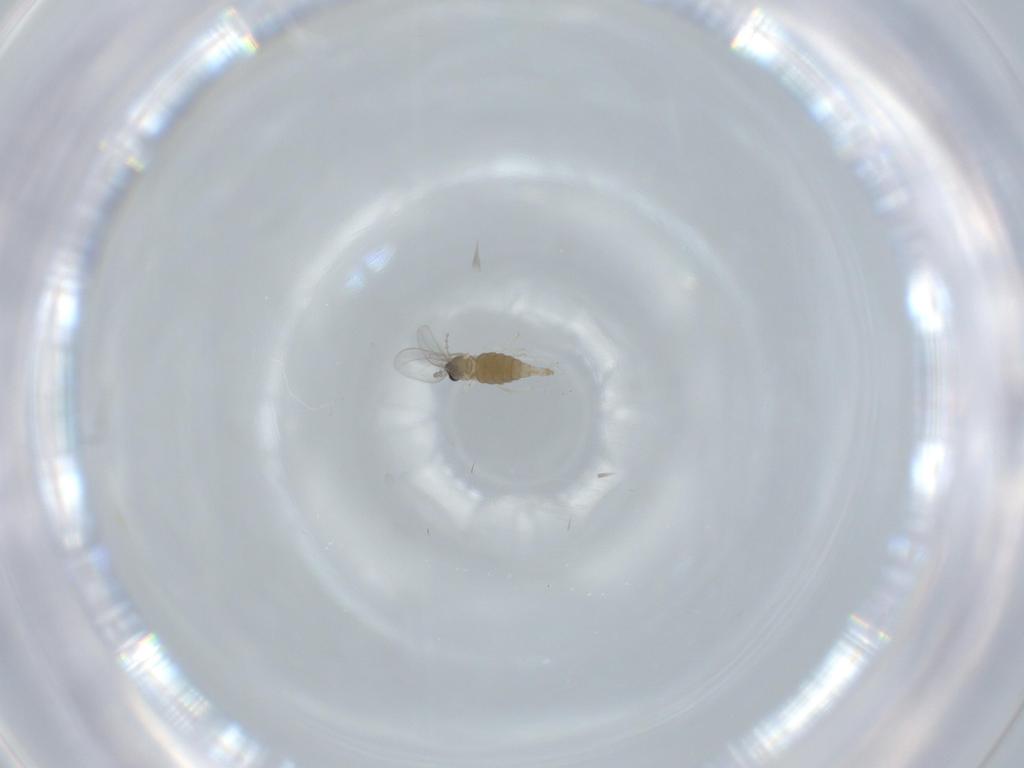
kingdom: Animalia
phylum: Arthropoda
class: Insecta
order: Diptera
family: Cecidomyiidae
